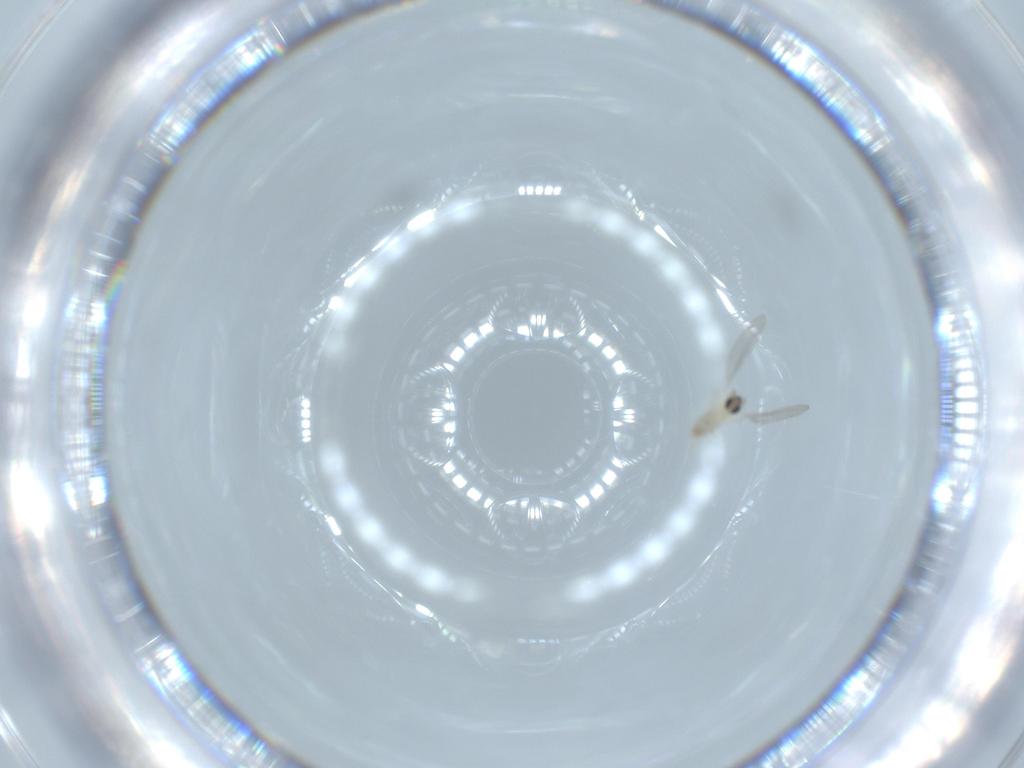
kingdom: Animalia
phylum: Arthropoda
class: Insecta
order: Diptera
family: Cecidomyiidae
